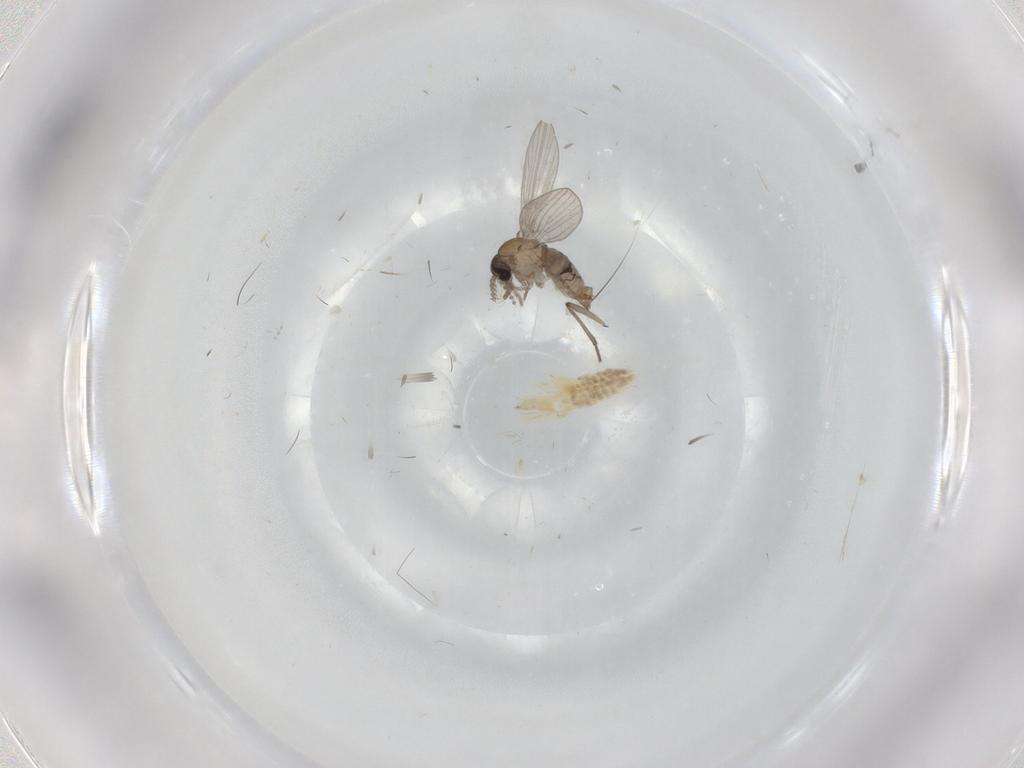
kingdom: Animalia
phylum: Arthropoda
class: Insecta
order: Diptera
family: Psychodidae
